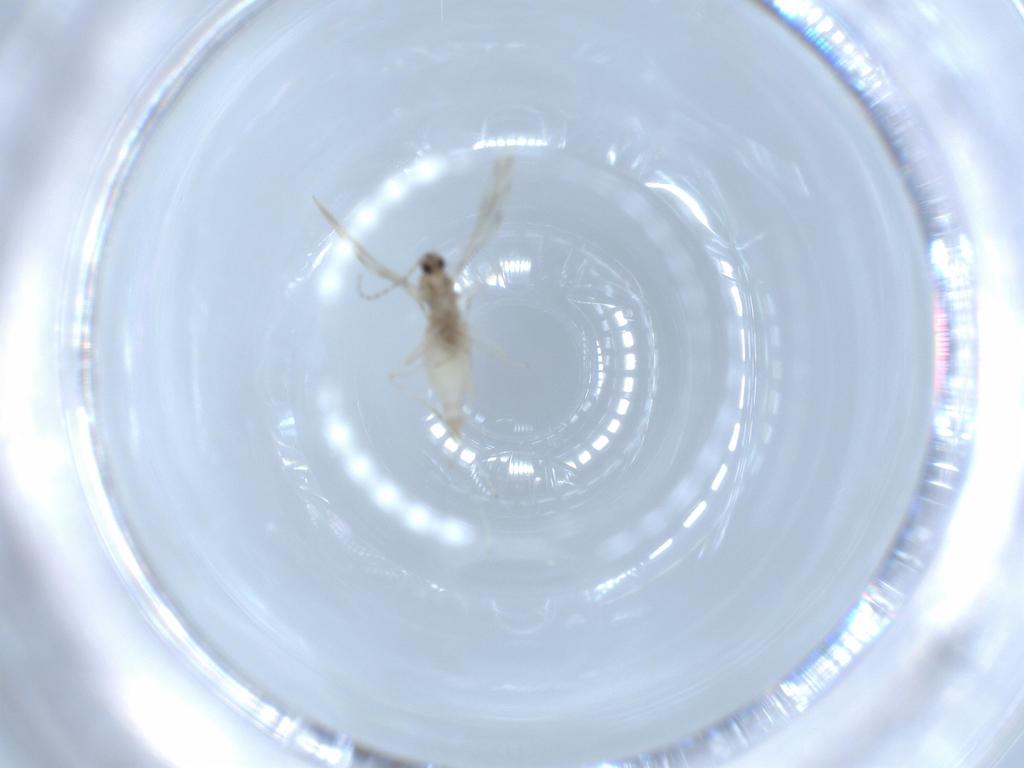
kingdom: Animalia
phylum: Arthropoda
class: Insecta
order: Diptera
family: Cecidomyiidae
